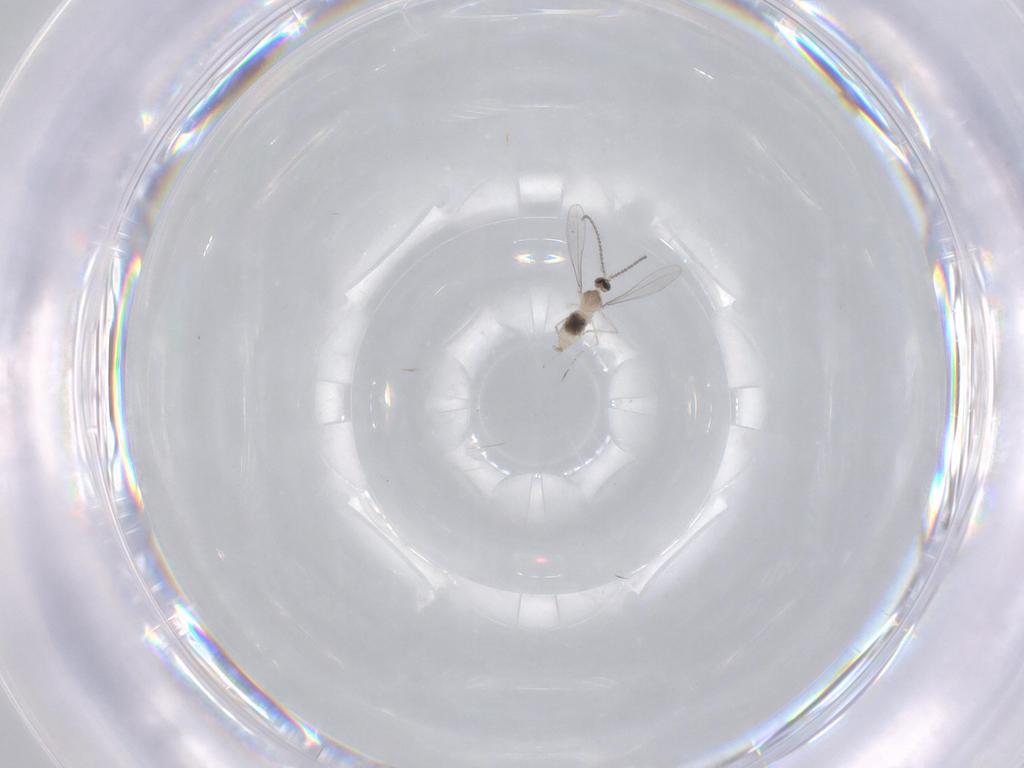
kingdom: Animalia
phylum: Arthropoda
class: Insecta
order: Diptera
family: Cecidomyiidae
